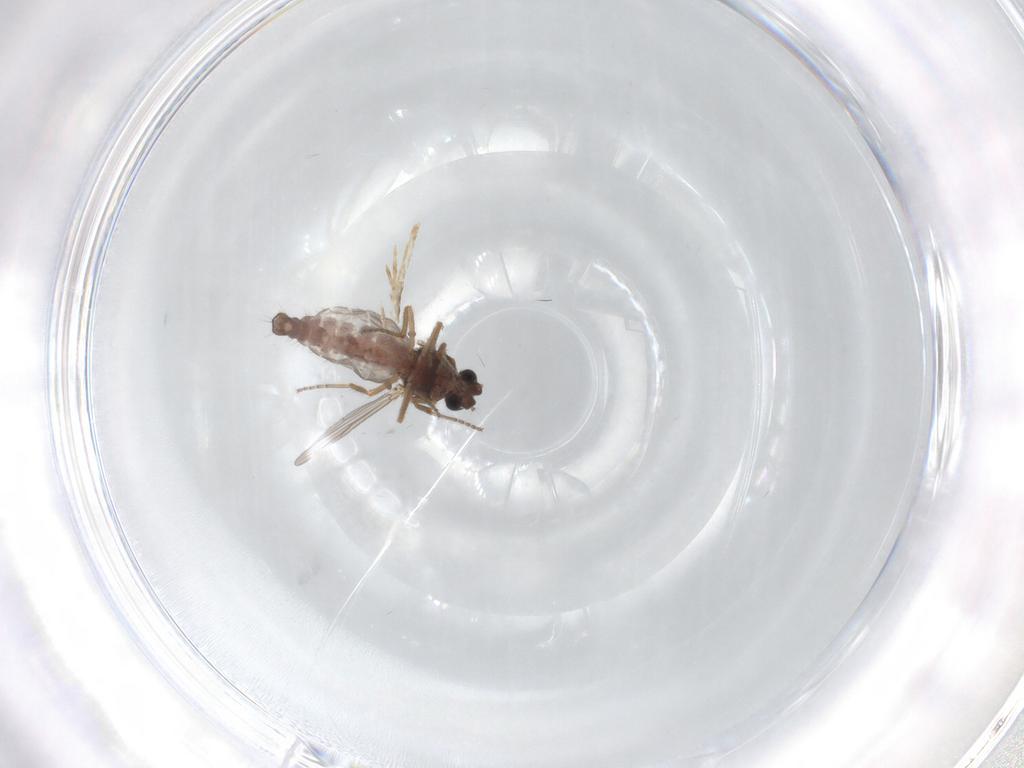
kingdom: Animalia
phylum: Arthropoda
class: Insecta
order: Diptera
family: Ceratopogonidae
